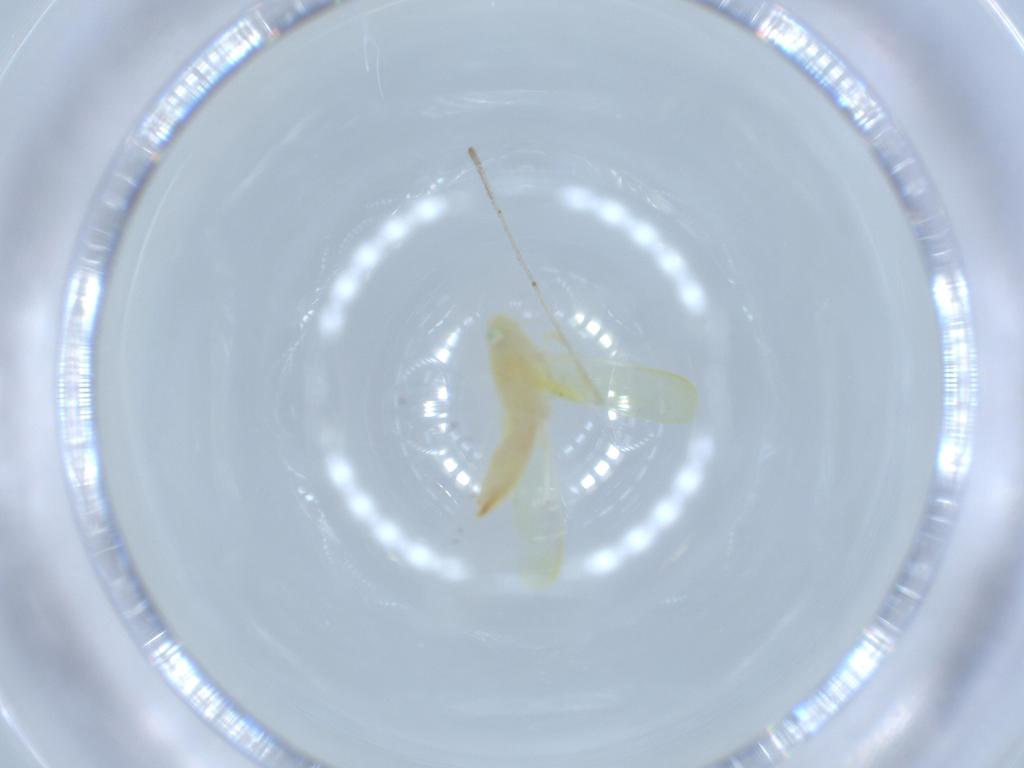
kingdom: Animalia
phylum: Arthropoda
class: Insecta
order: Hemiptera
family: Cicadellidae
